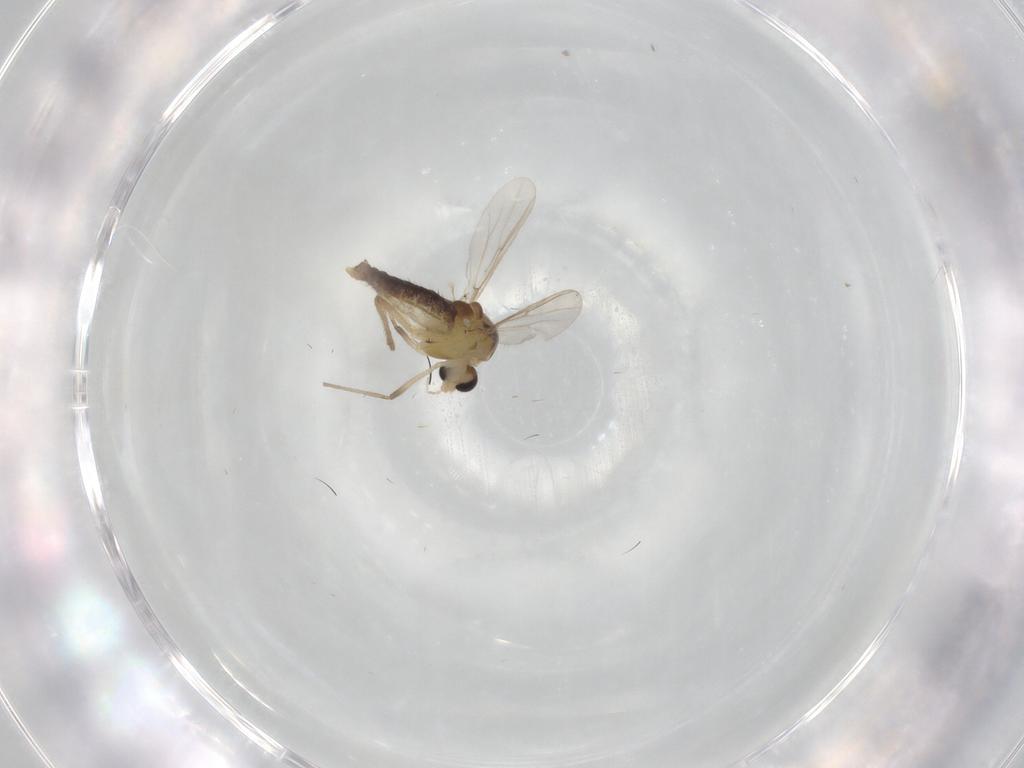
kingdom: Animalia
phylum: Arthropoda
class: Insecta
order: Diptera
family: Chironomidae
